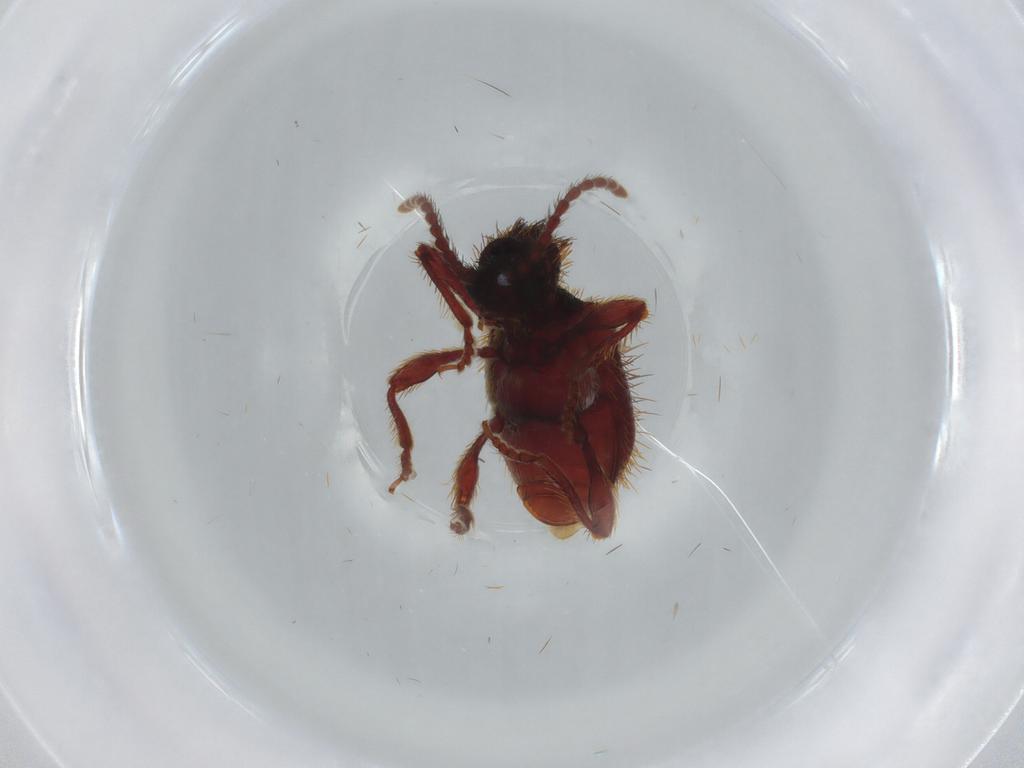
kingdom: Animalia
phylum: Arthropoda
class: Insecta
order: Coleoptera
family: Ptinidae
